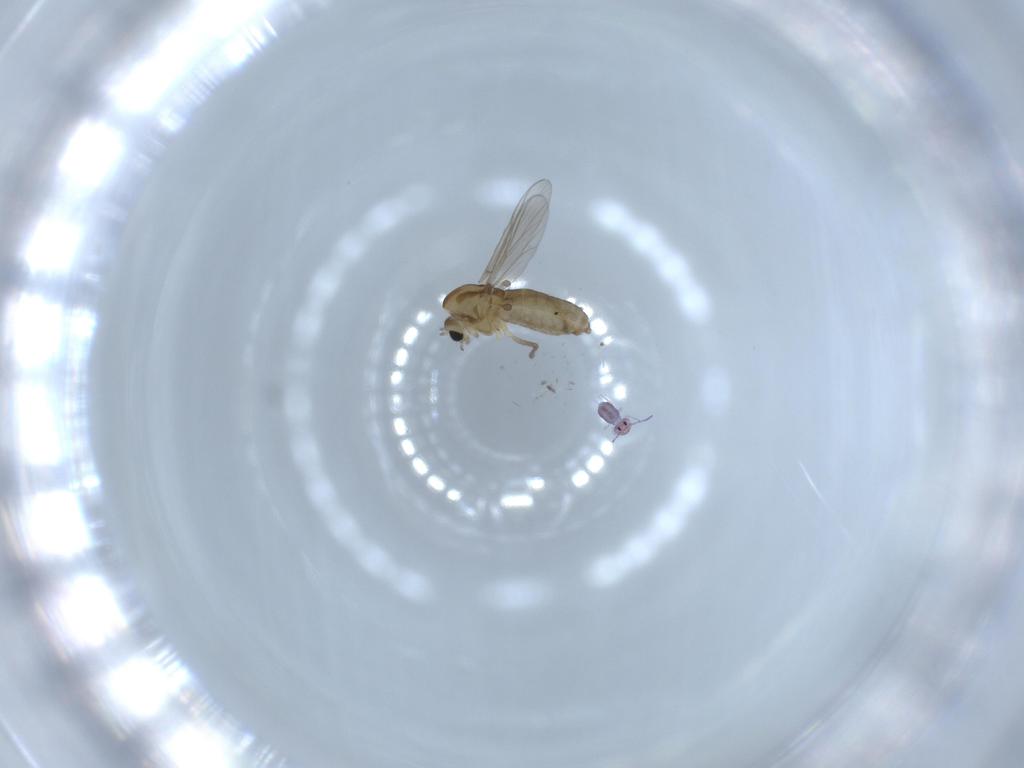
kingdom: Animalia
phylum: Arthropoda
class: Insecta
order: Diptera
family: Chironomidae
